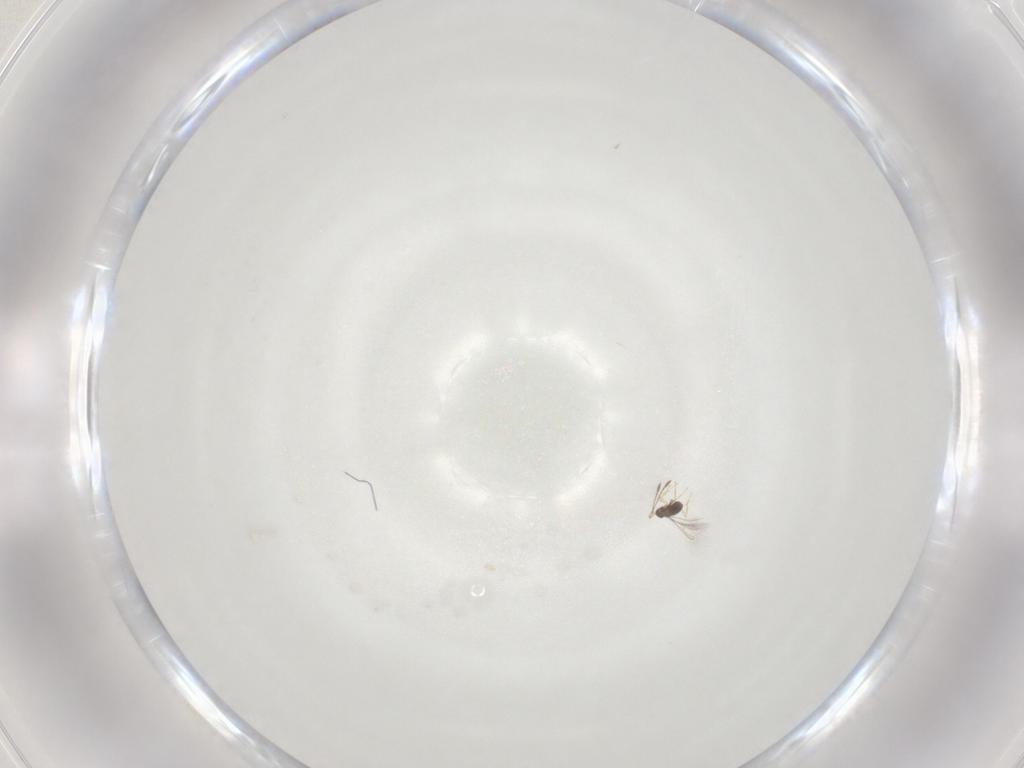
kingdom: Animalia
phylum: Arthropoda
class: Insecta
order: Hymenoptera
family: Mymaridae
